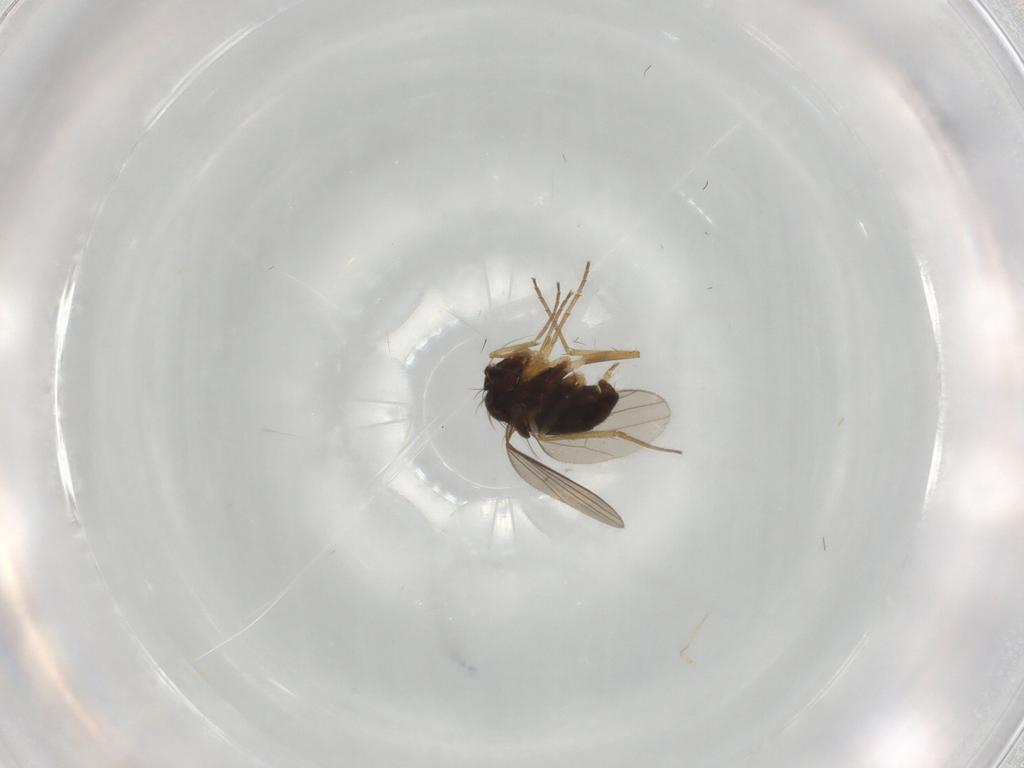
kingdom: Animalia
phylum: Arthropoda
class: Insecta
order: Diptera
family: Dolichopodidae
